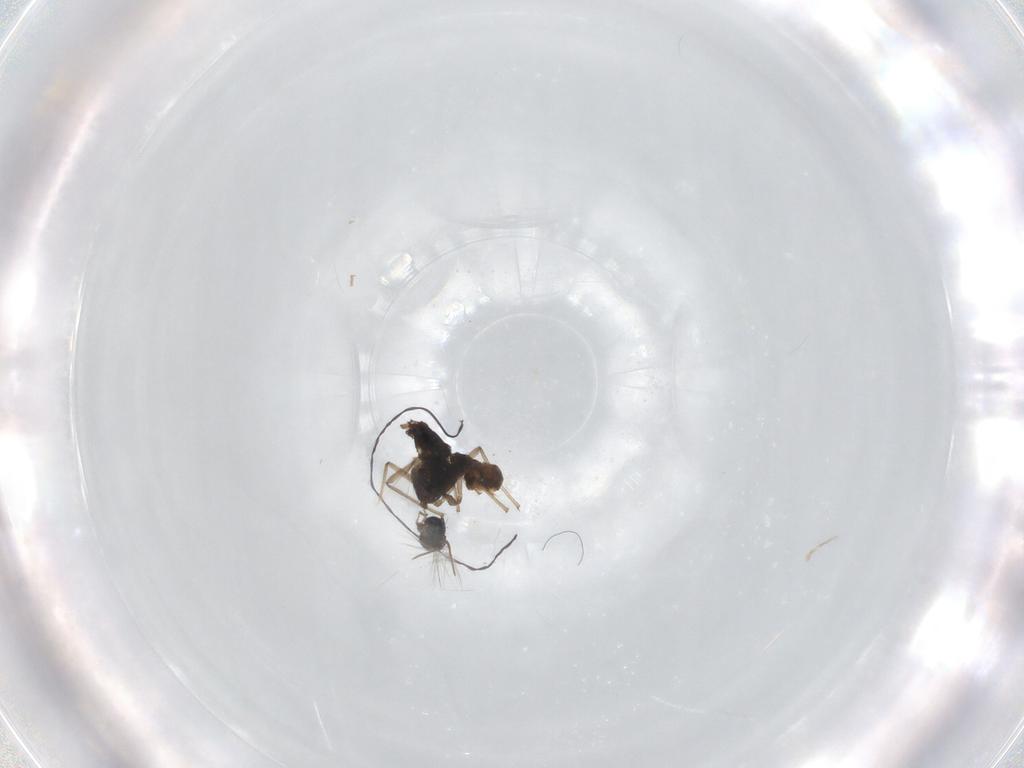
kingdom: Animalia
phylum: Arthropoda
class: Insecta
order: Diptera
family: Chironomidae
